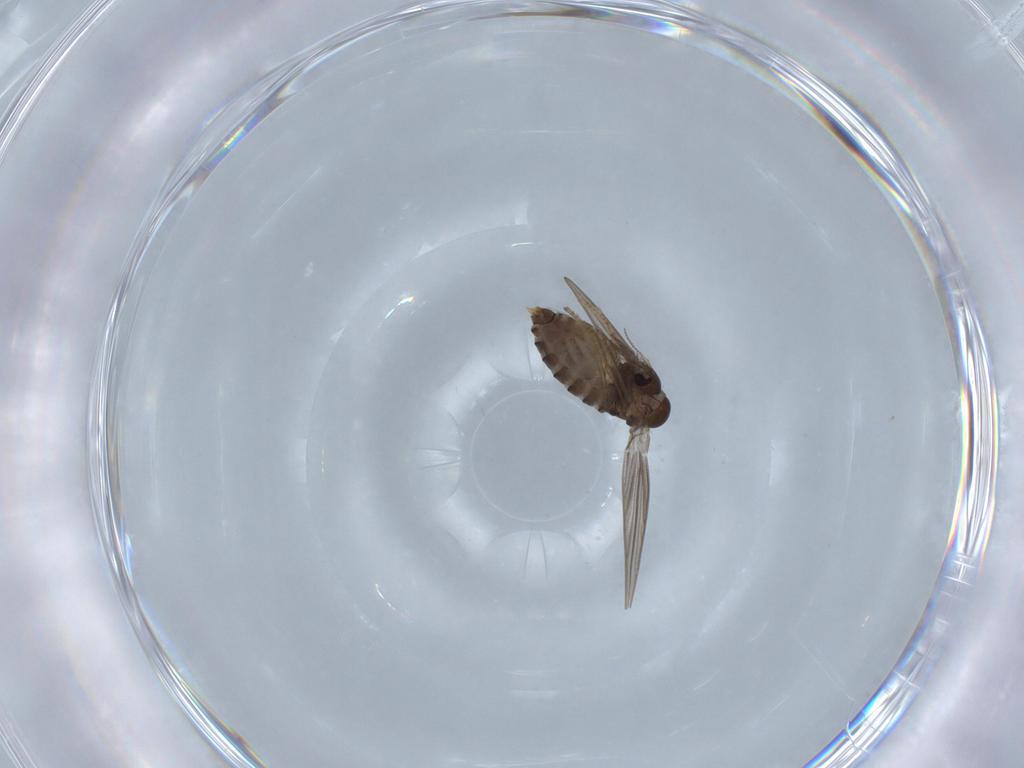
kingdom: Animalia
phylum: Arthropoda
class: Insecta
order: Diptera
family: Psychodidae
